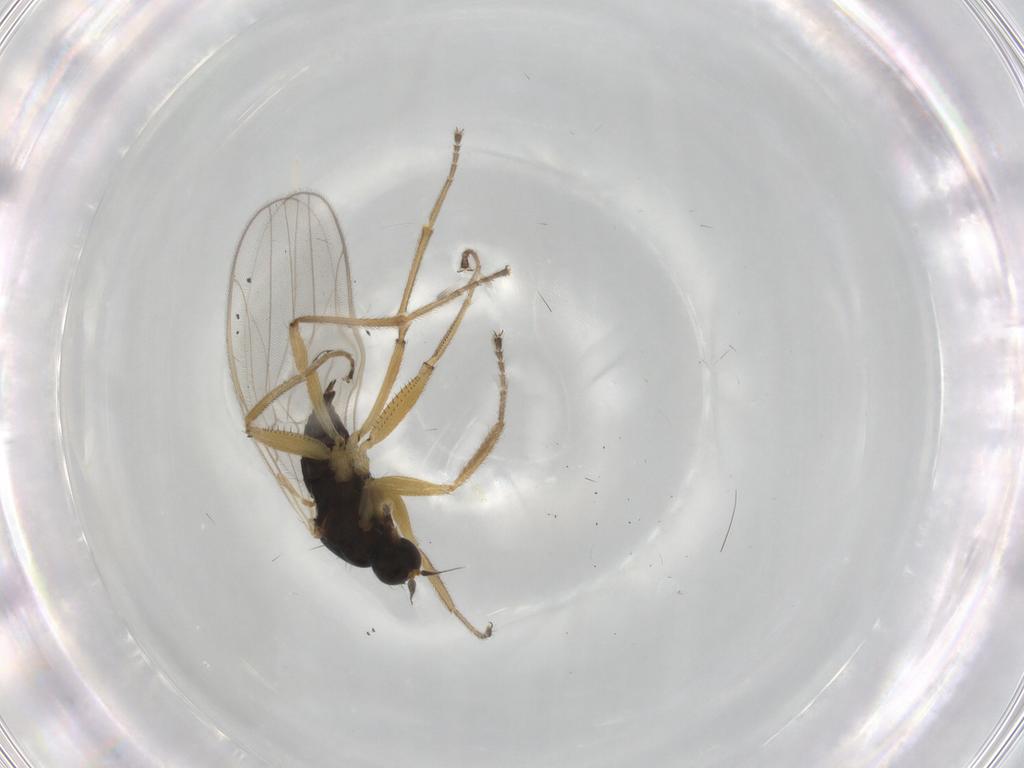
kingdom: Animalia
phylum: Arthropoda
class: Insecta
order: Diptera
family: Hybotidae
